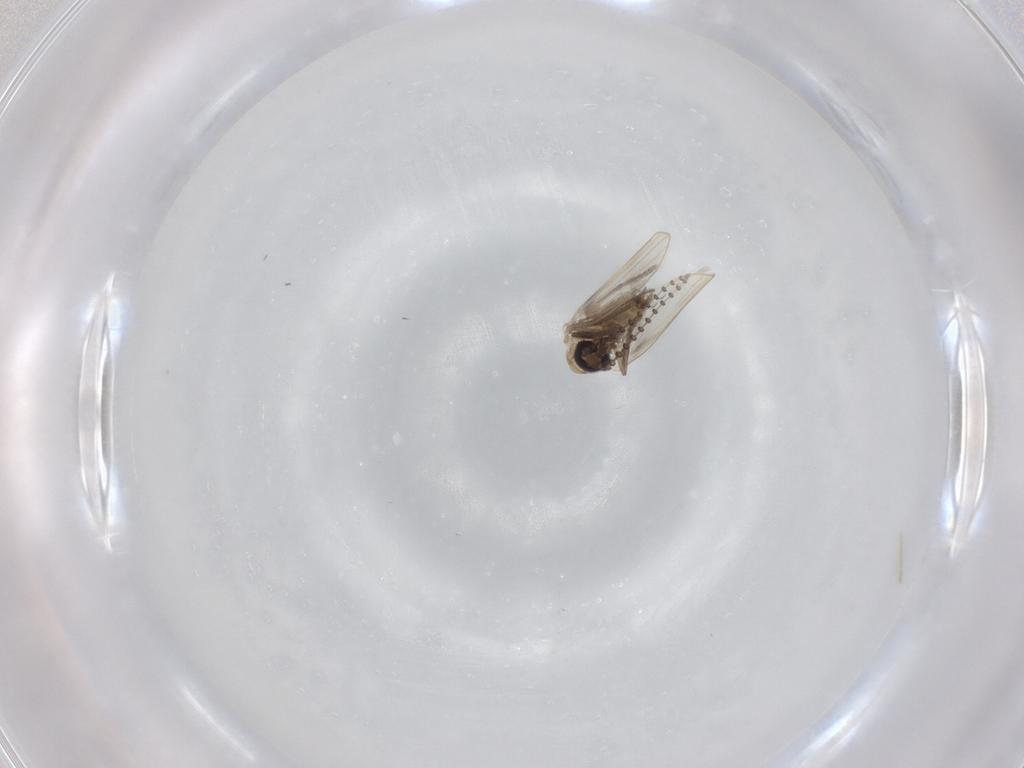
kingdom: Animalia
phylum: Arthropoda
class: Insecta
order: Diptera
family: Psychodidae
